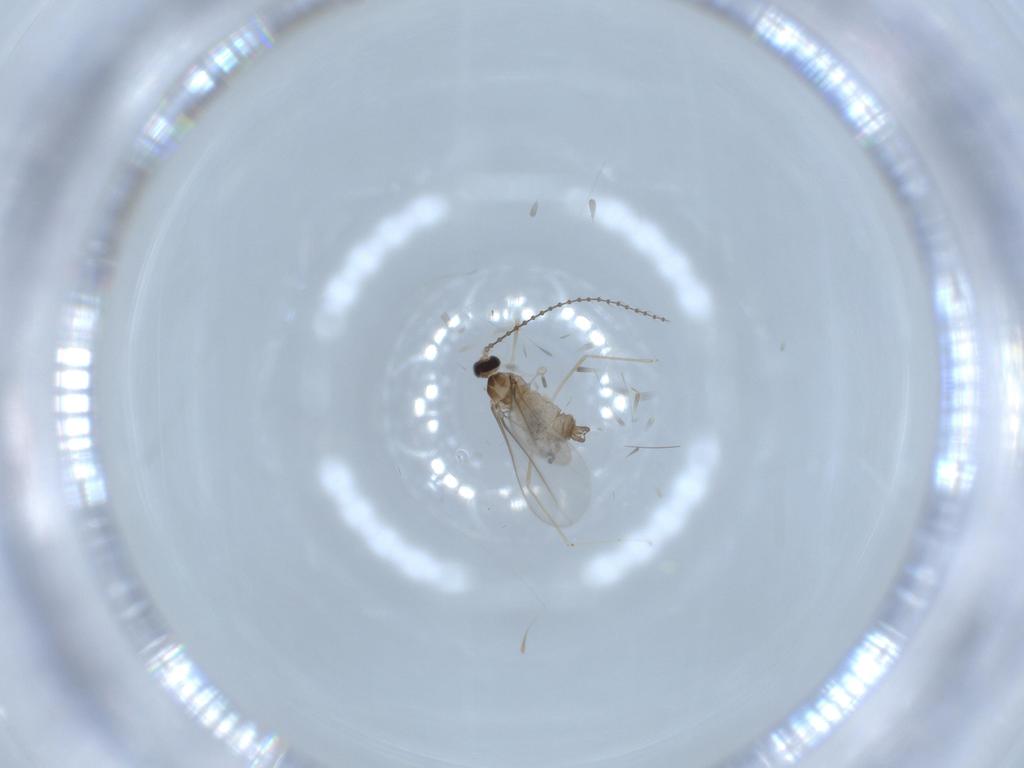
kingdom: Animalia
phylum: Arthropoda
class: Insecta
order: Diptera
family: Cecidomyiidae
